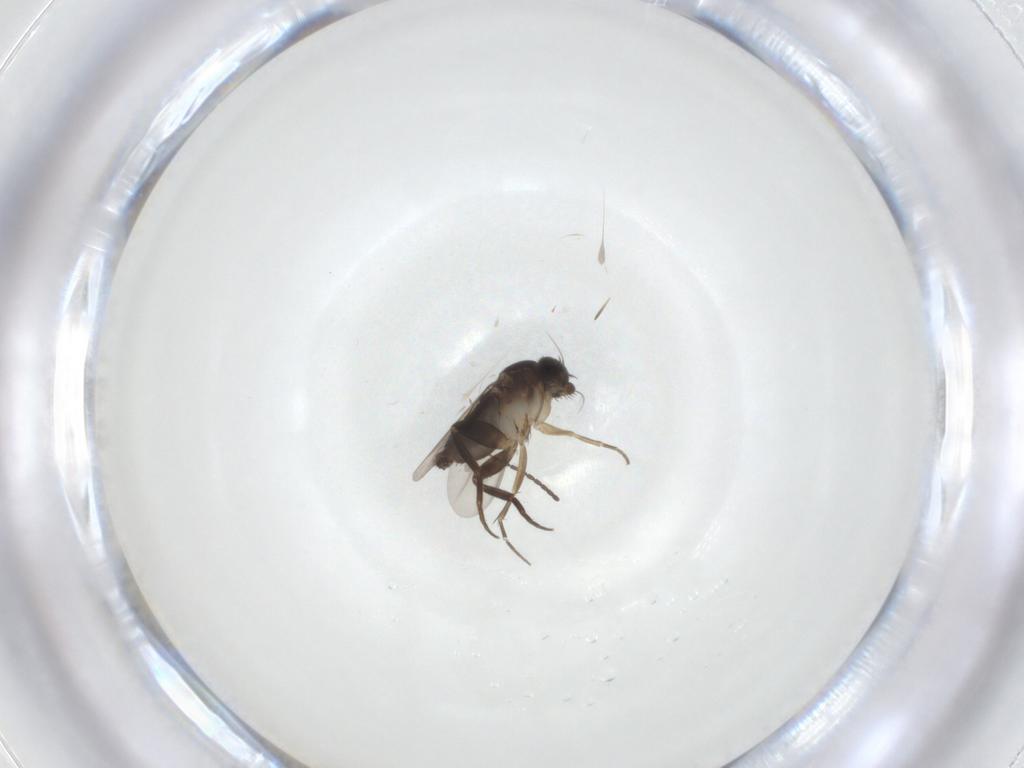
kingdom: Animalia
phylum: Arthropoda
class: Insecta
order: Diptera
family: Phoridae
